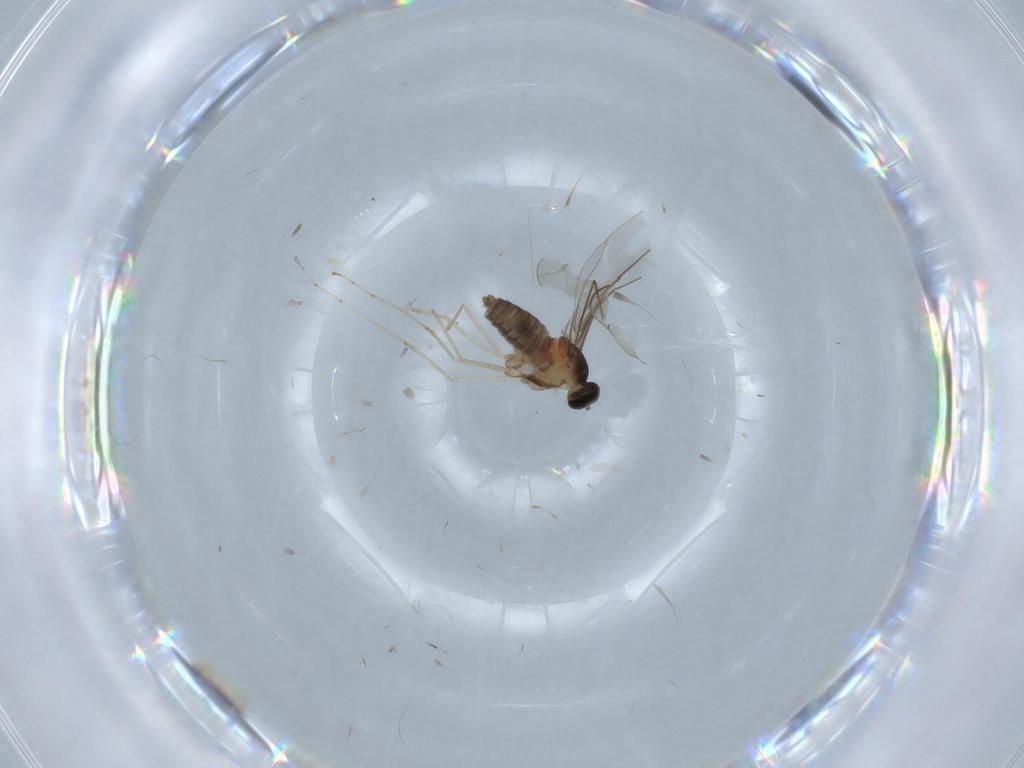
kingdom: Animalia
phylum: Arthropoda
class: Insecta
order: Diptera
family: Cecidomyiidae
